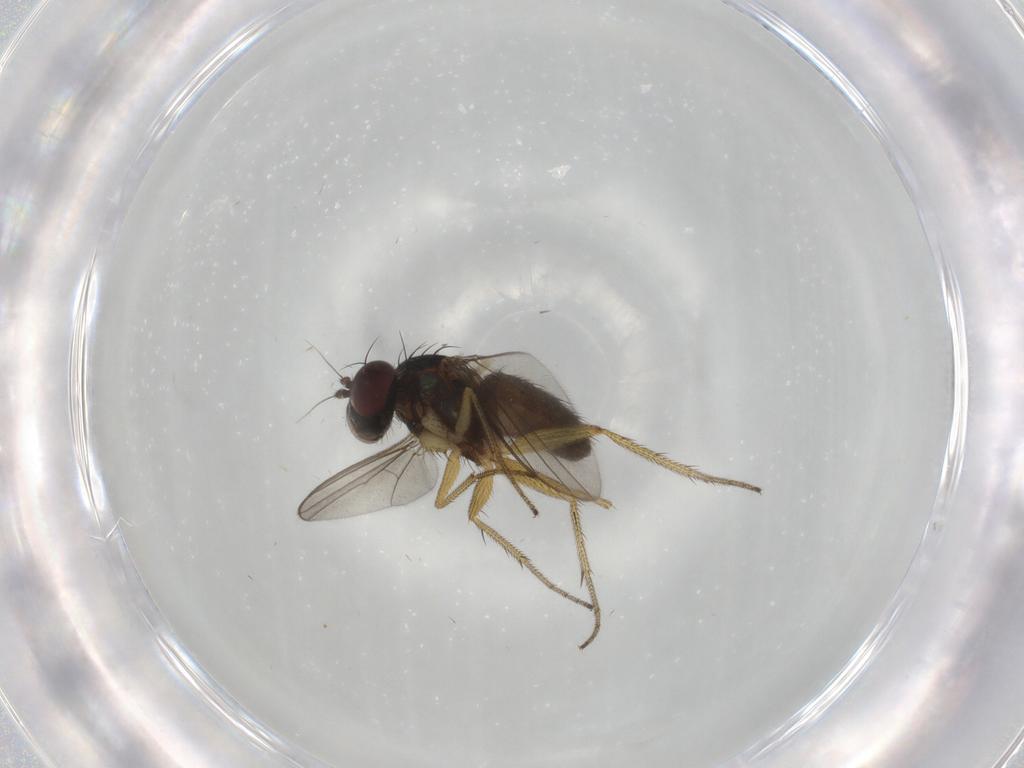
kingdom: Animalia
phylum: Arthropoda
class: Insecta
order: Diptera
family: Dolichopodidae
